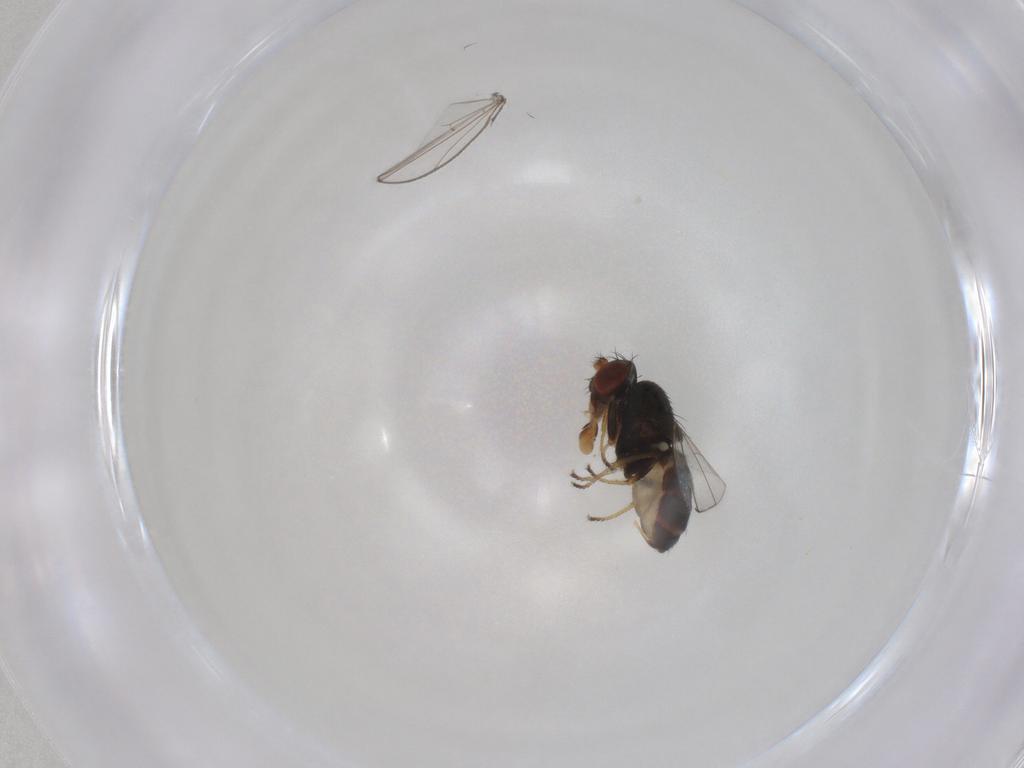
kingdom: Animalia
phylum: Arthropoda
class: Insecta
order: Diptera
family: Ephydridae
